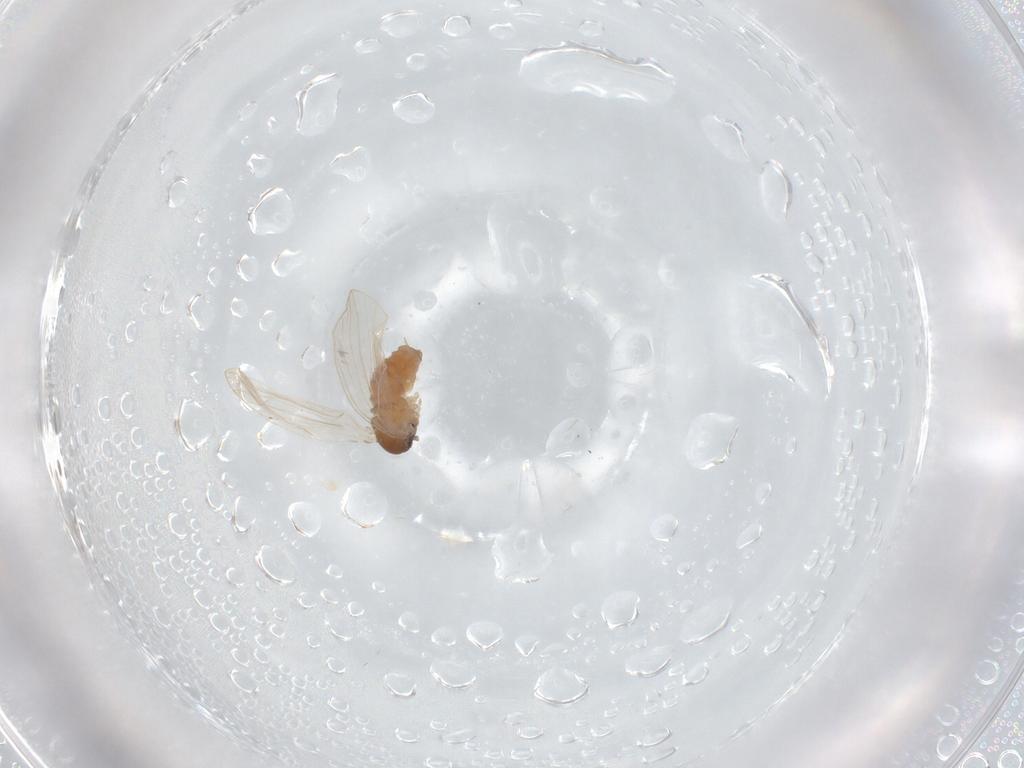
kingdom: Animalia
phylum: Arthropoda
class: Insecta
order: Diptera
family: Psychodidae
